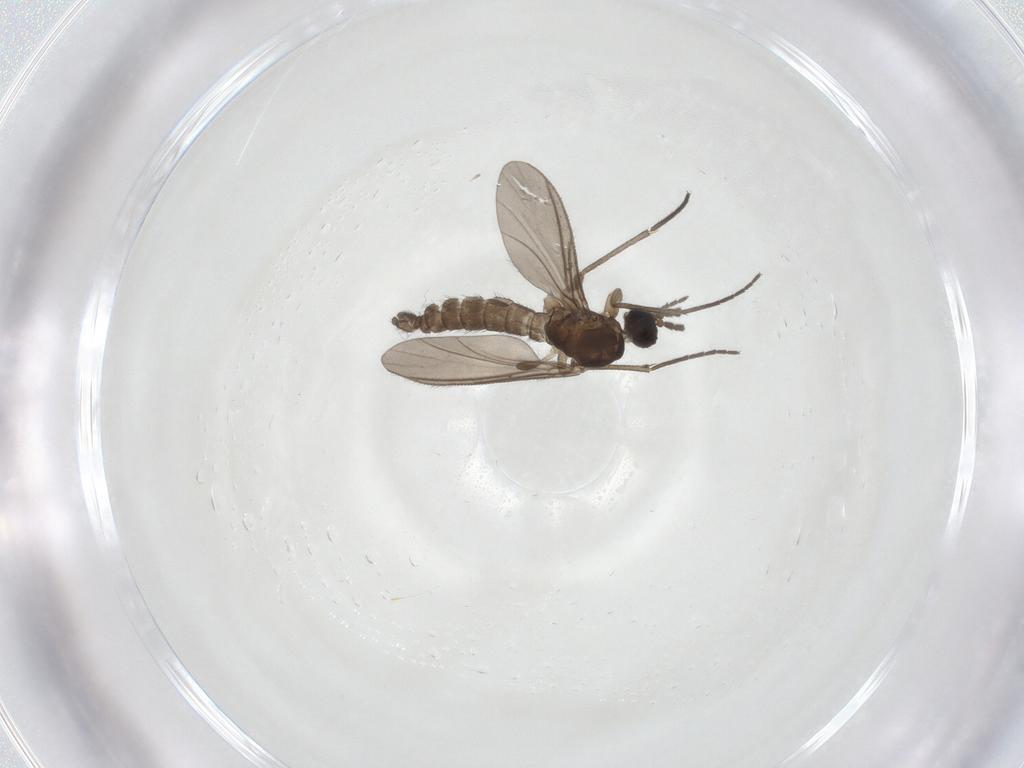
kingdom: Animalia
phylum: Arthropoda
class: Insecta
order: Diptera
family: Sciaridae
